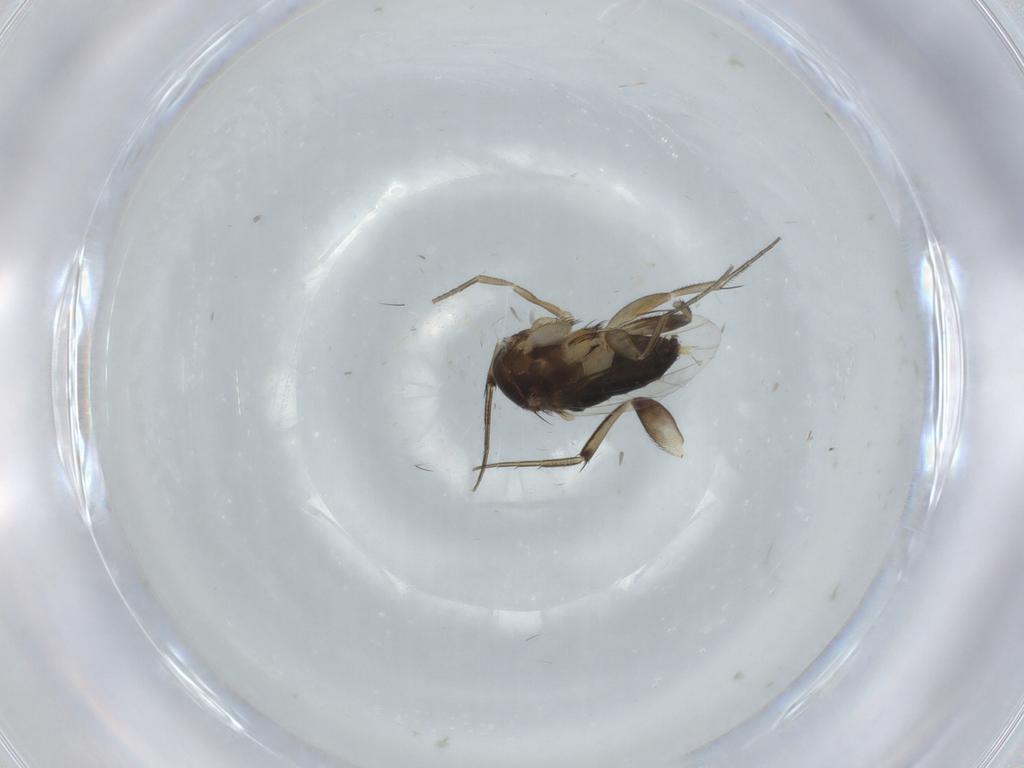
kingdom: Animalia
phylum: Arthropoda
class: Insecta
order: Diptera
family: Phoridae
